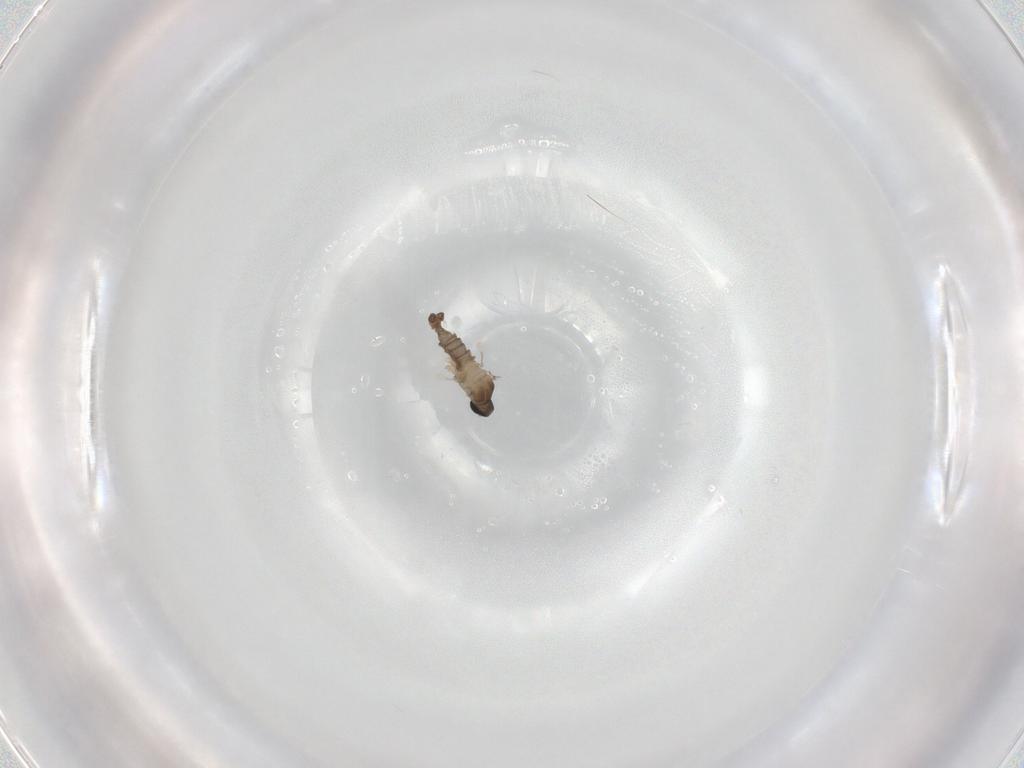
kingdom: Animalia
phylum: Arthropoda
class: Insecta
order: Diptera
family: Cecidomyiidae
